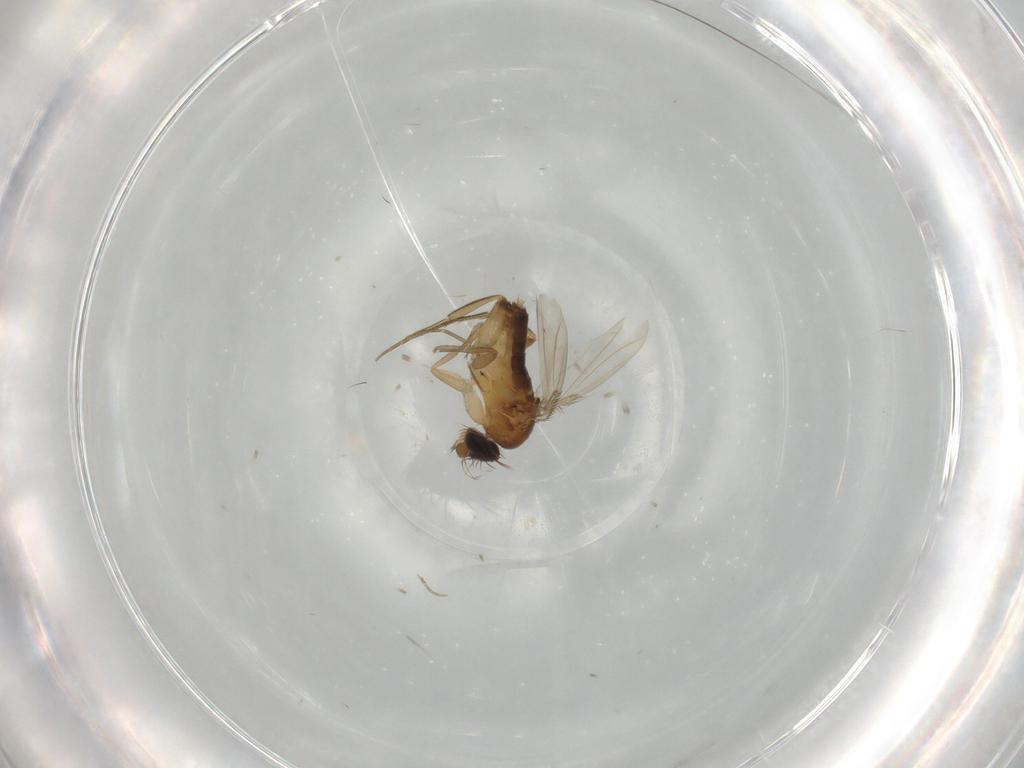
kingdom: Animalia
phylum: Arthropoda
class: Insecta
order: Diptera
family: Phoridae
